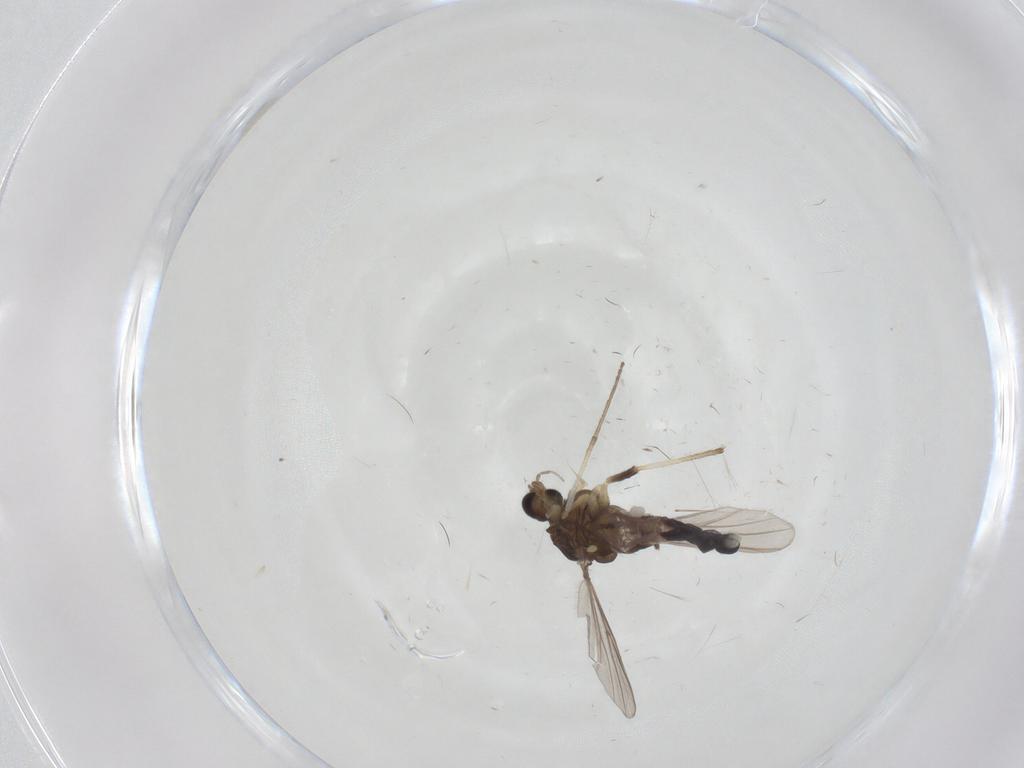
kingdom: Animalia
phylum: Arthropoda
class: Insecta
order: Diptera
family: Chironomidae
